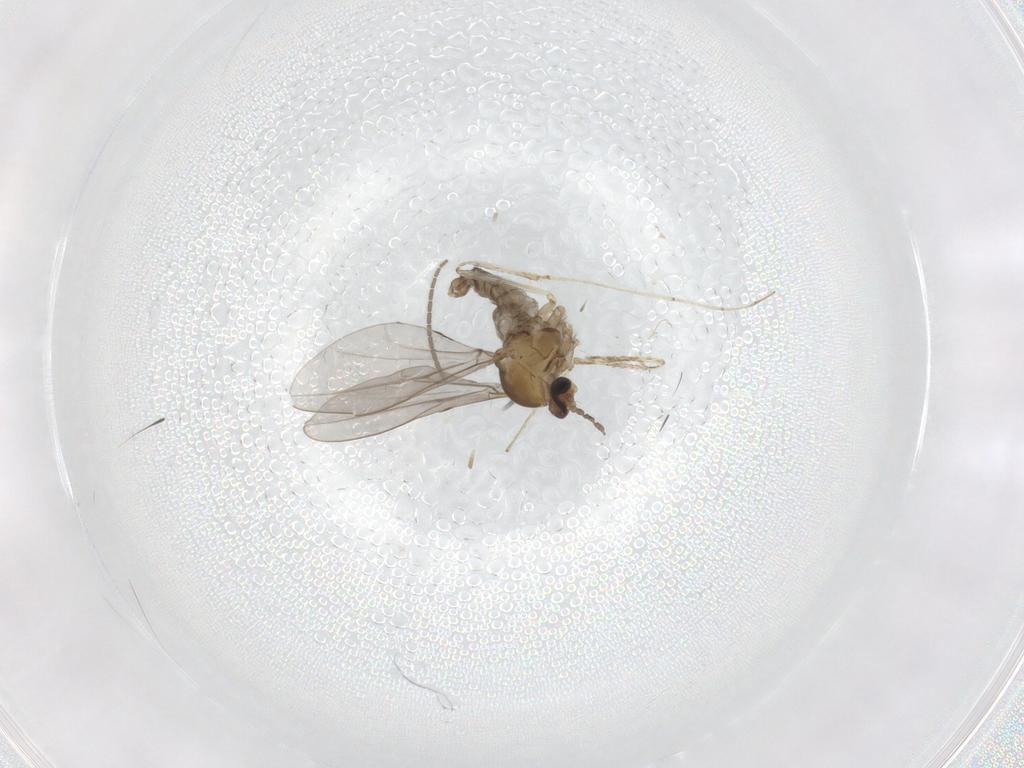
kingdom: Animalia
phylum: Arthropoda
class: Insecta
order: Diptera
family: Cecidomyiidae
